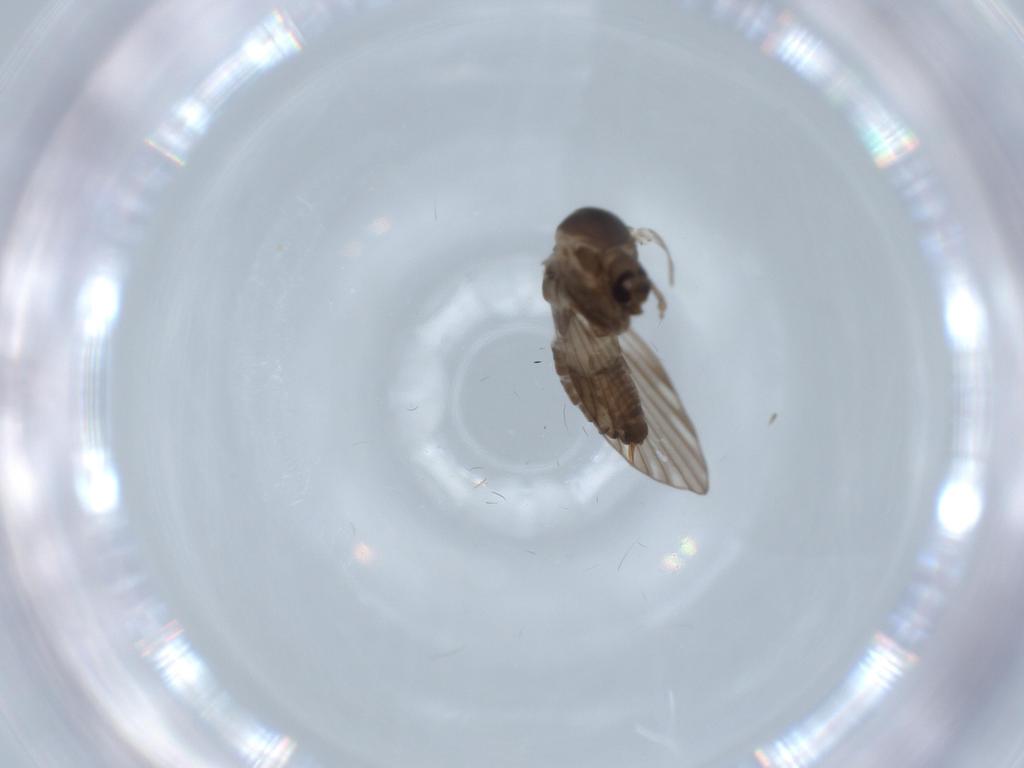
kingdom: Animalia
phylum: Arthropoda
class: Insecta
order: Diptera
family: Psychodidae
